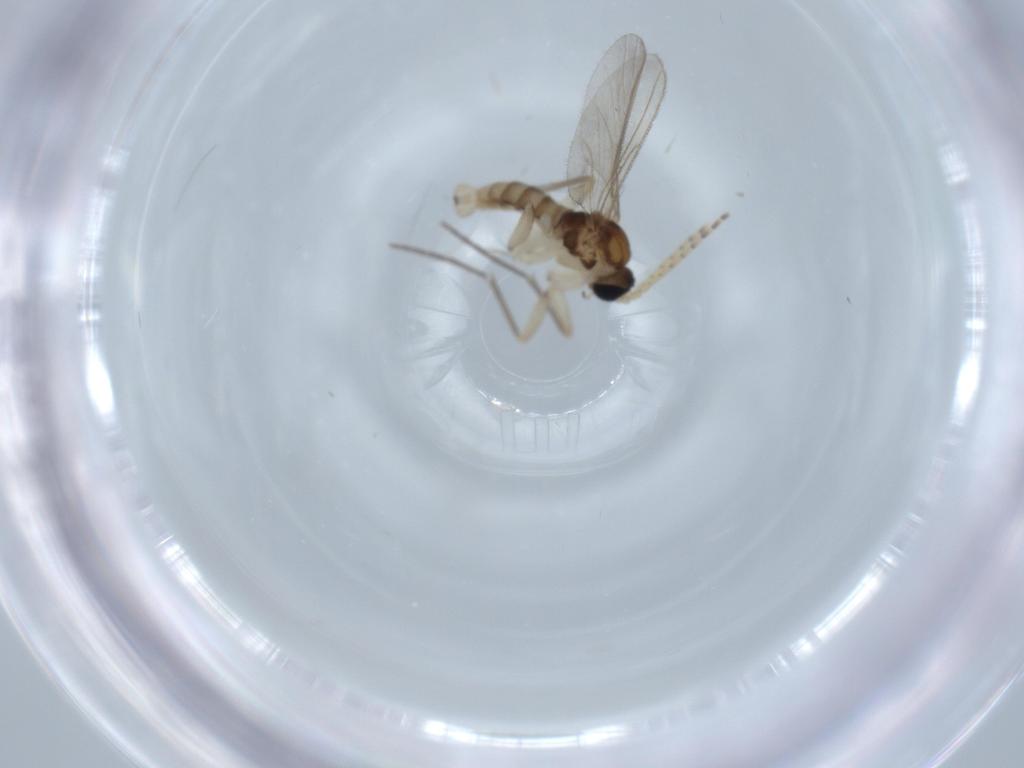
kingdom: Animalia
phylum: Arthropoda
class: Insecta
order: Diptera
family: Sciaridae
